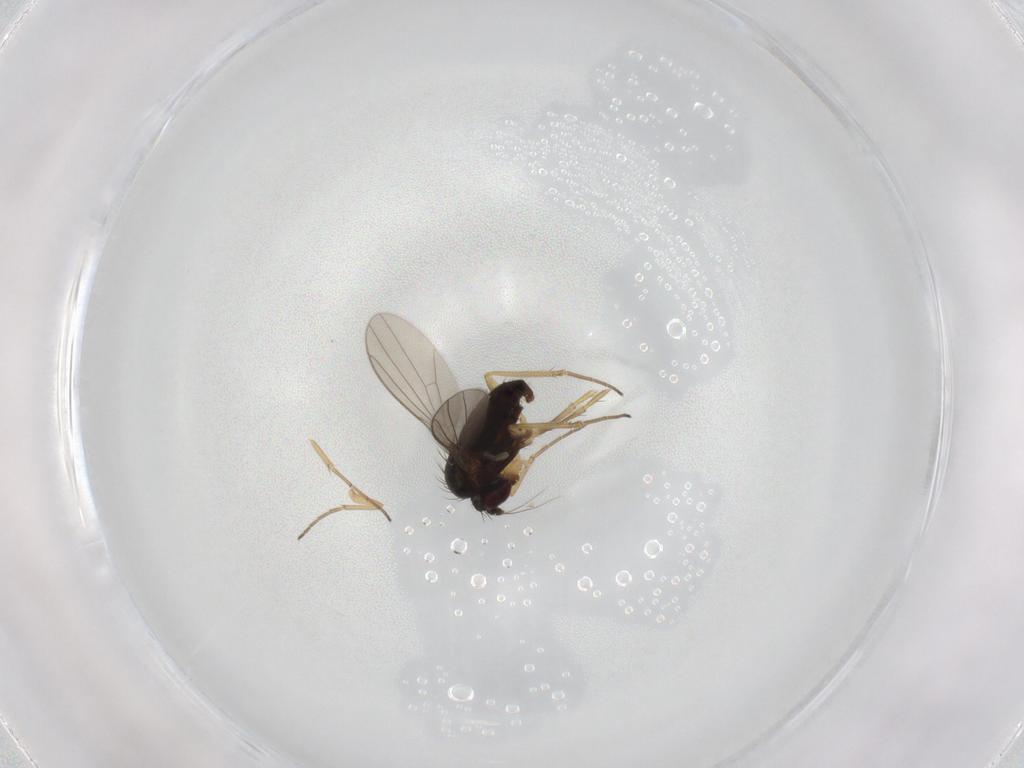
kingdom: Animalia
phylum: Arthropoda
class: Insecta
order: Diptera
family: Dolichopodidae
